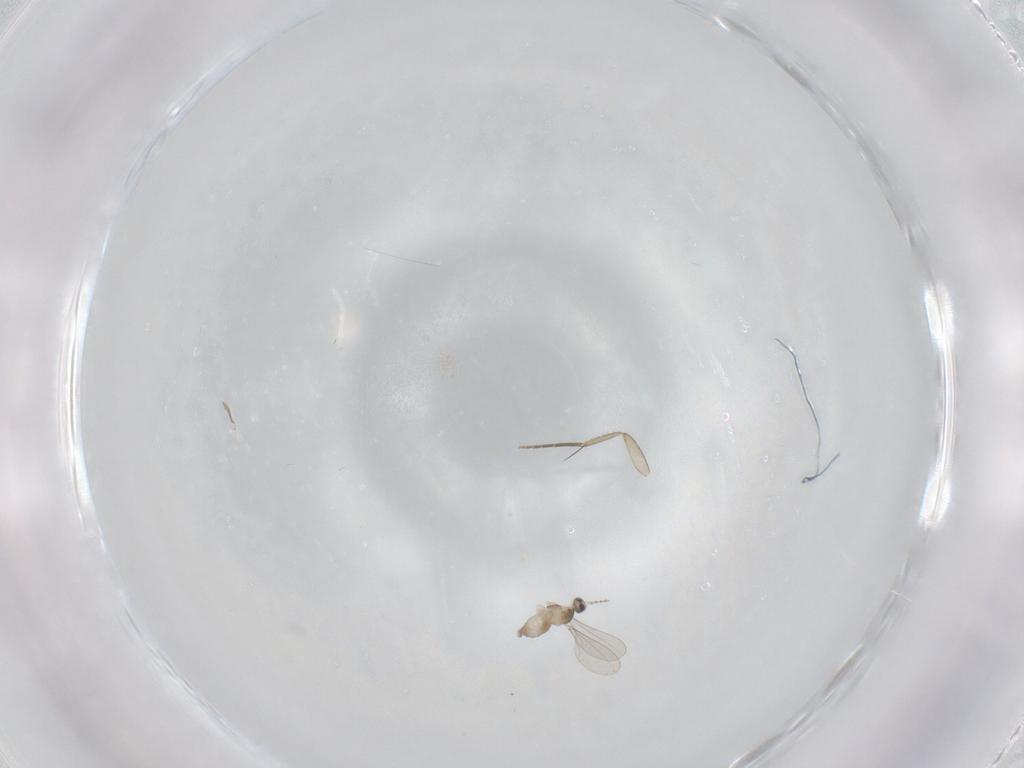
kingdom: Animalia
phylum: Arthropoda
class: Insecta
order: Diptera
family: Cecidomyiidae
